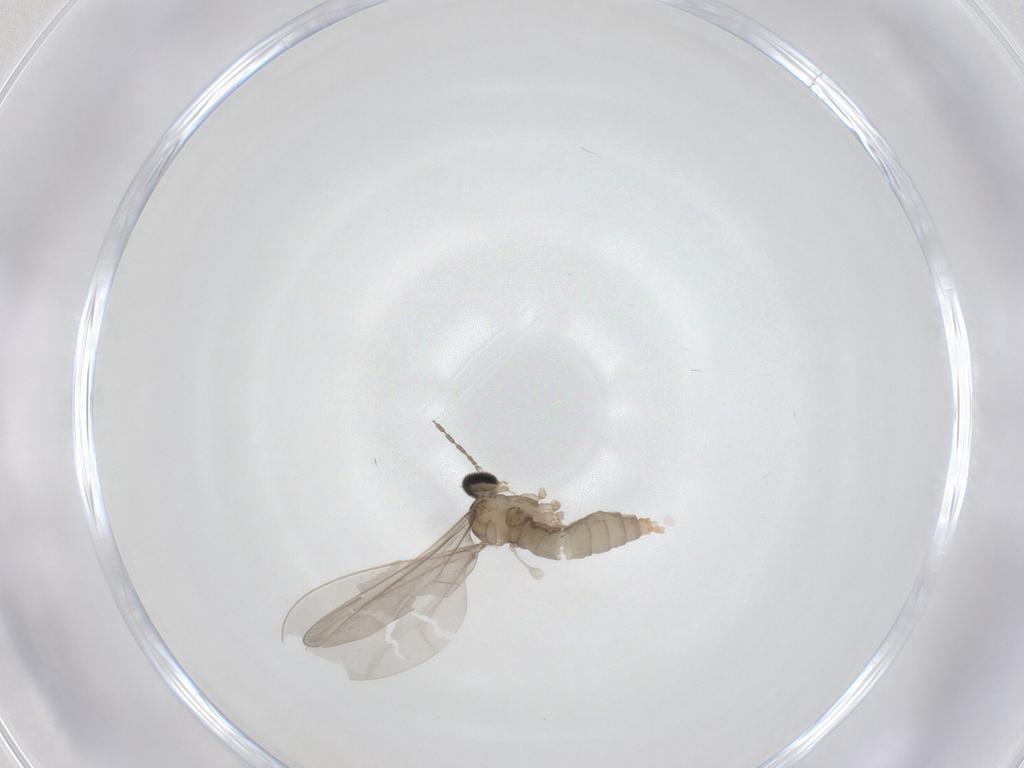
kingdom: Animalia
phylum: Arthropoda
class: Insecta
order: Diptera
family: Cecidomyiidae
